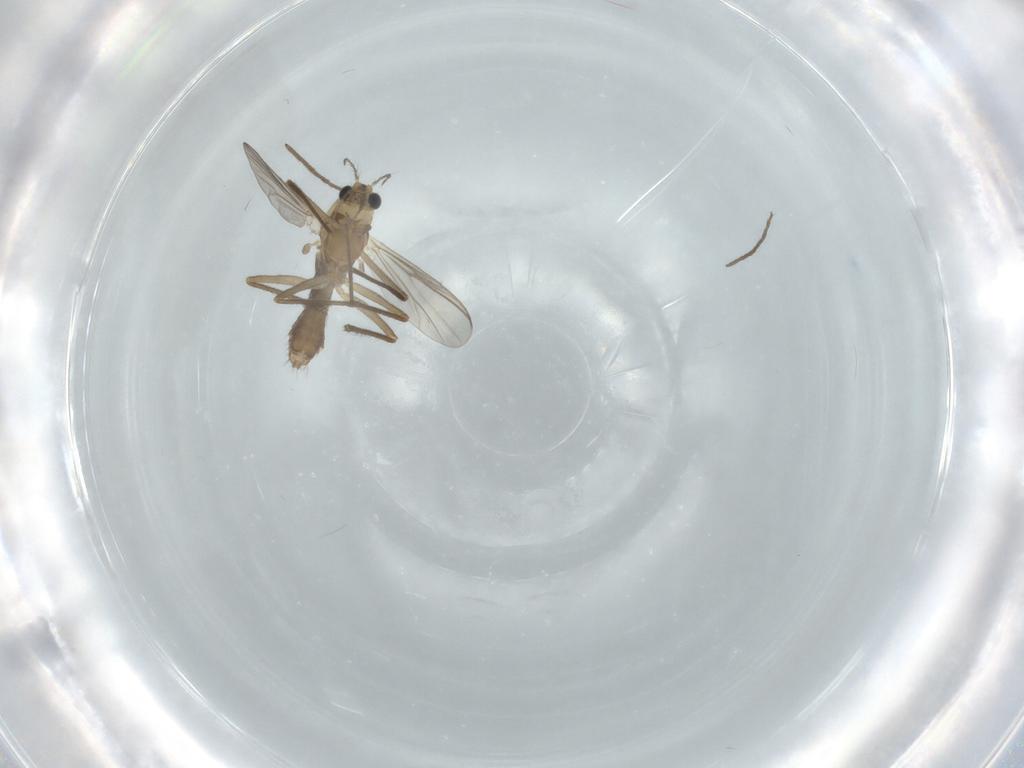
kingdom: Animalia
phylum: Arthropoda
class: Insecta
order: Diptera
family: Chironomidae
